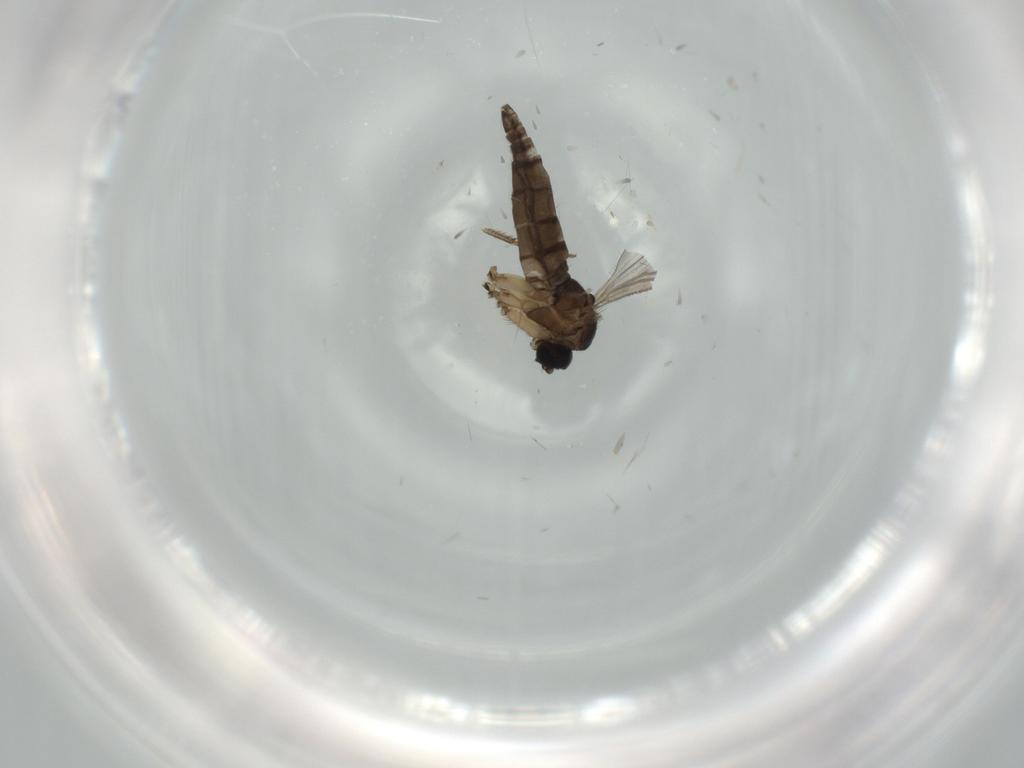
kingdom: Animalia
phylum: Arthropoda
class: Insecta
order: Diptera
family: Sciaridae
